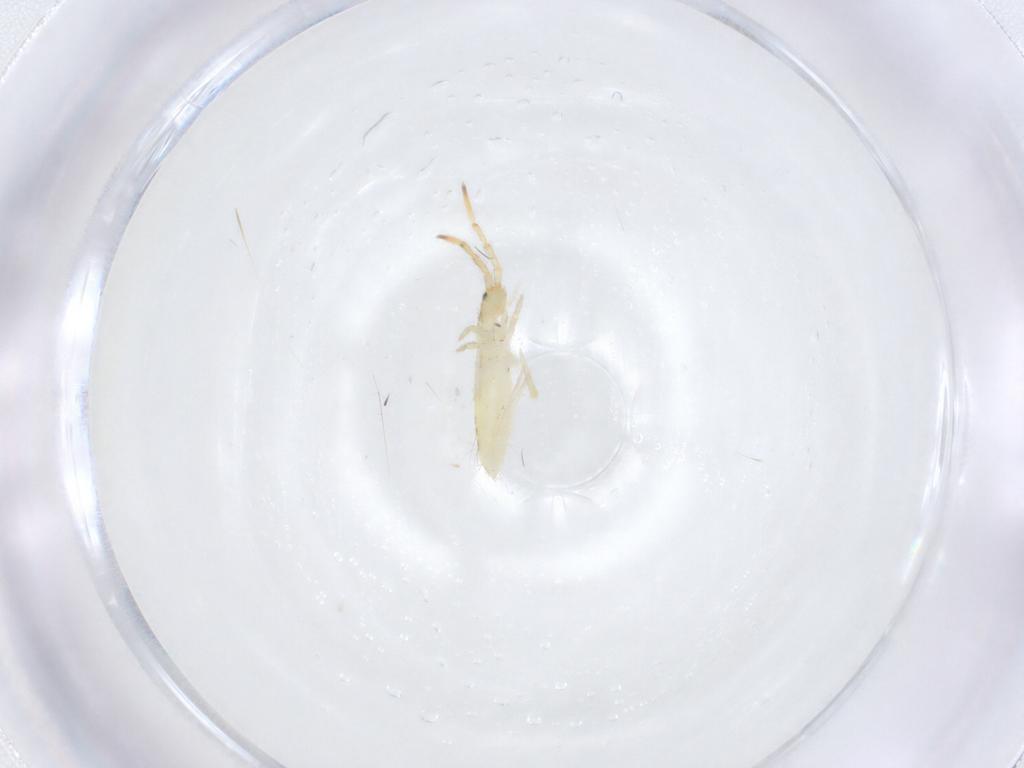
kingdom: Animalia
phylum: Arthropoda
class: Collembola
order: Entomobryomorpha
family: Entomobryidae
